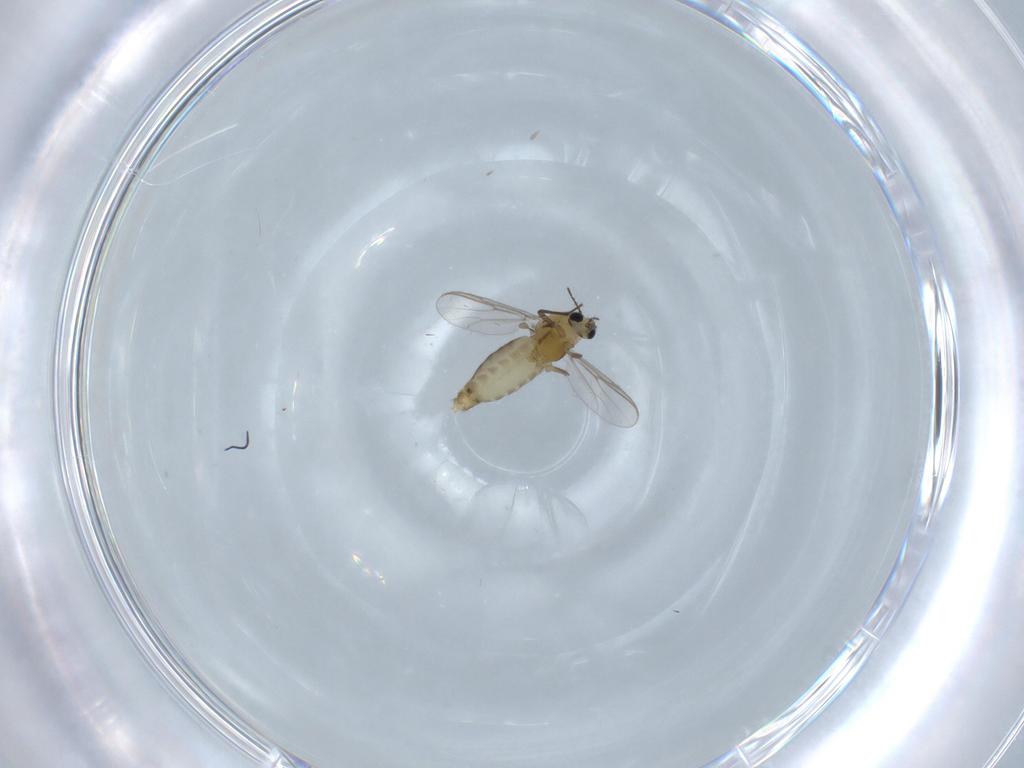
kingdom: Animalia
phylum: Arthropoda
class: Insecta
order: Diptera
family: Chironomidae
